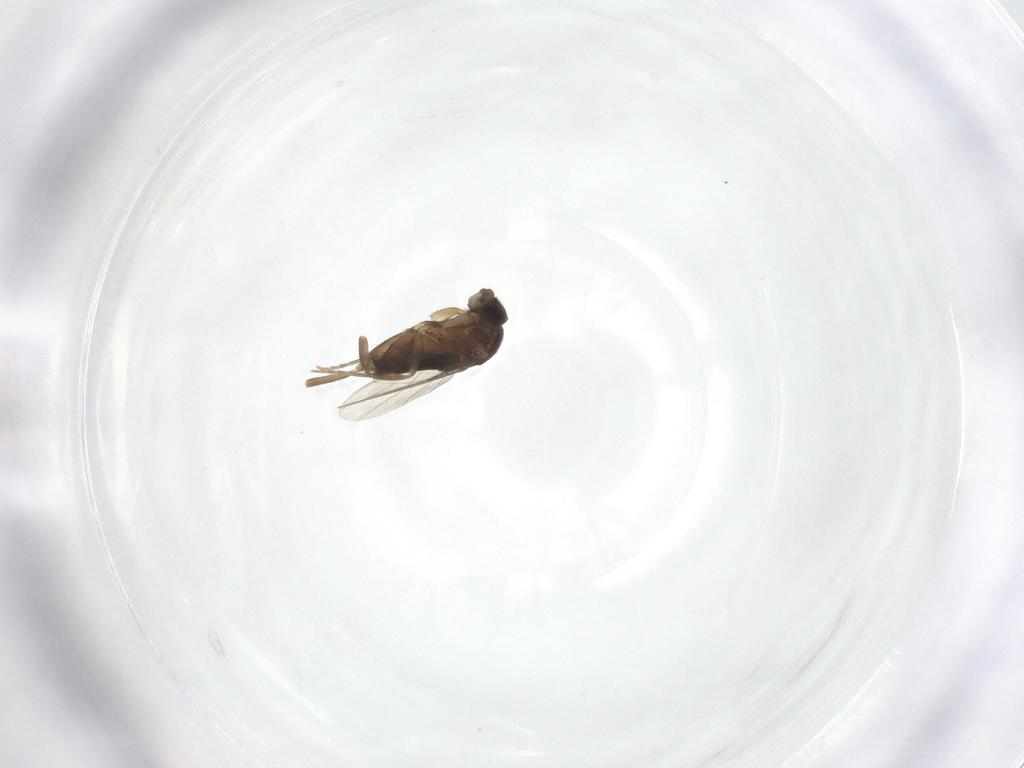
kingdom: Animalia
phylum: Arthropoda
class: Insecta
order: Diptera
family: Phoridae
